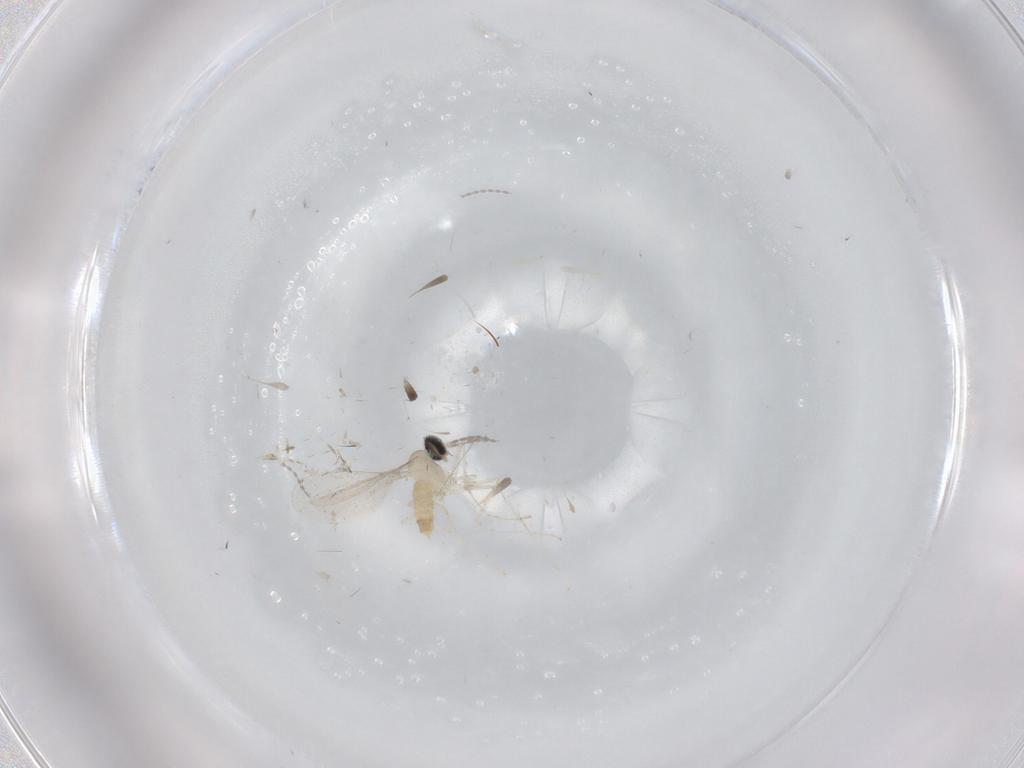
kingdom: Animalia
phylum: Arthropoda
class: Insecta
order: Diptera
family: Cecidomyiidae
